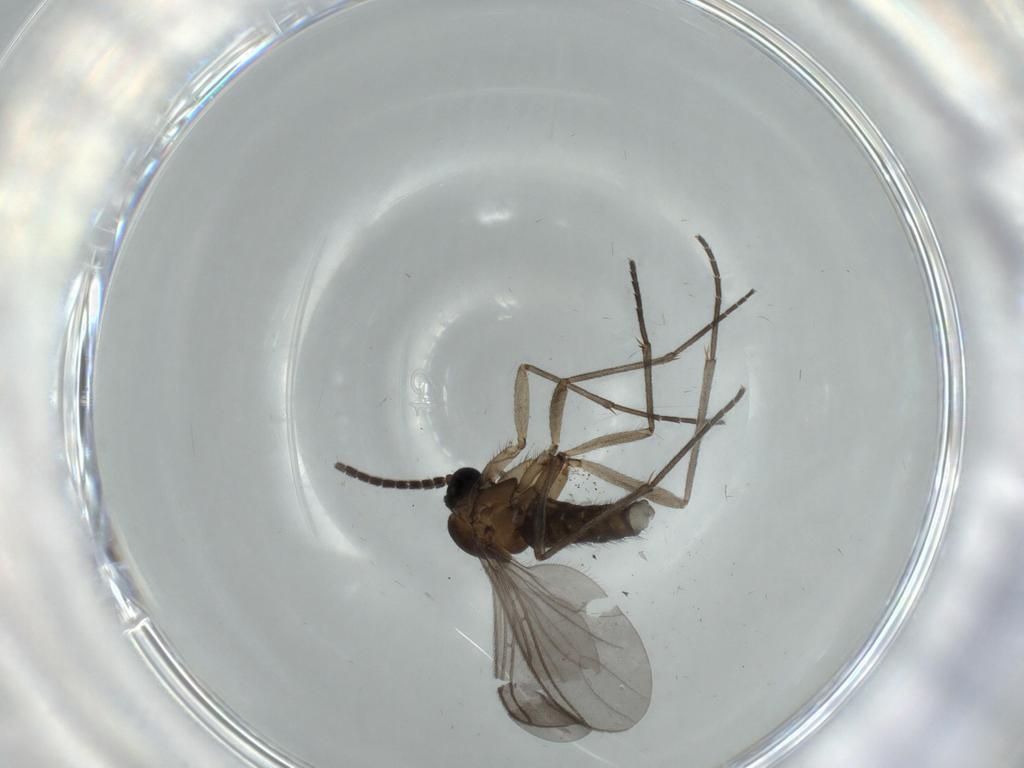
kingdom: Animalia
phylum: Arthropoda
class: Insecta
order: Diptera
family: Sciaridae
